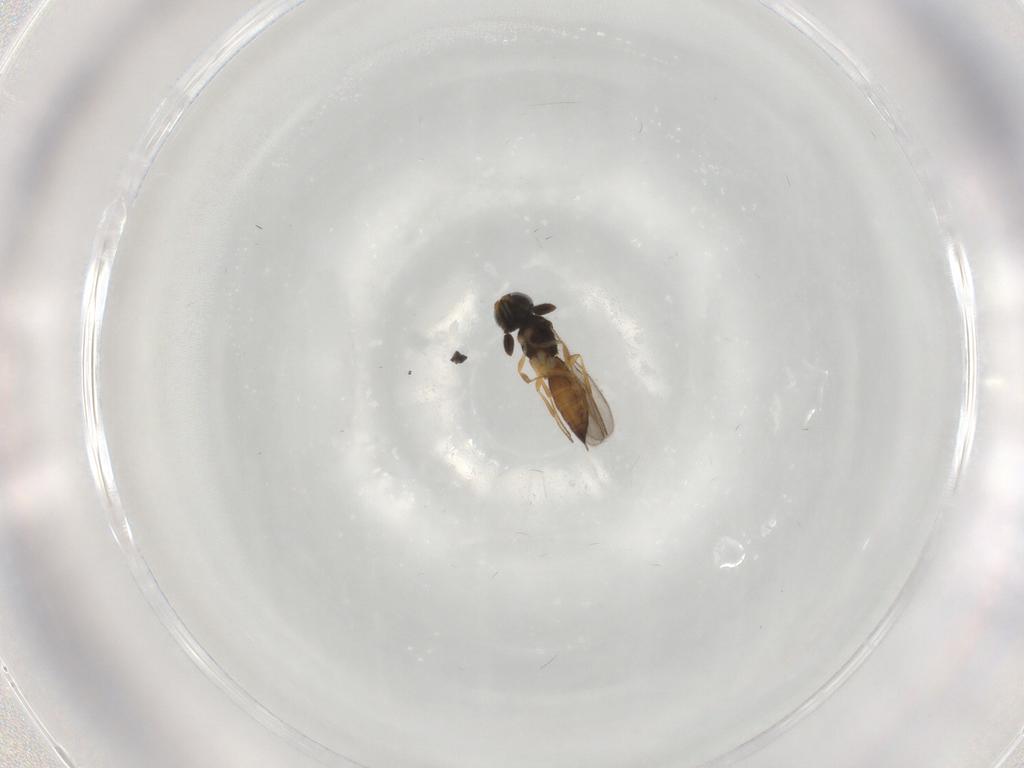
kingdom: Animalia
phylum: Arthropoda
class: Insecta
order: Hymenoptera
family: Scelionidae
